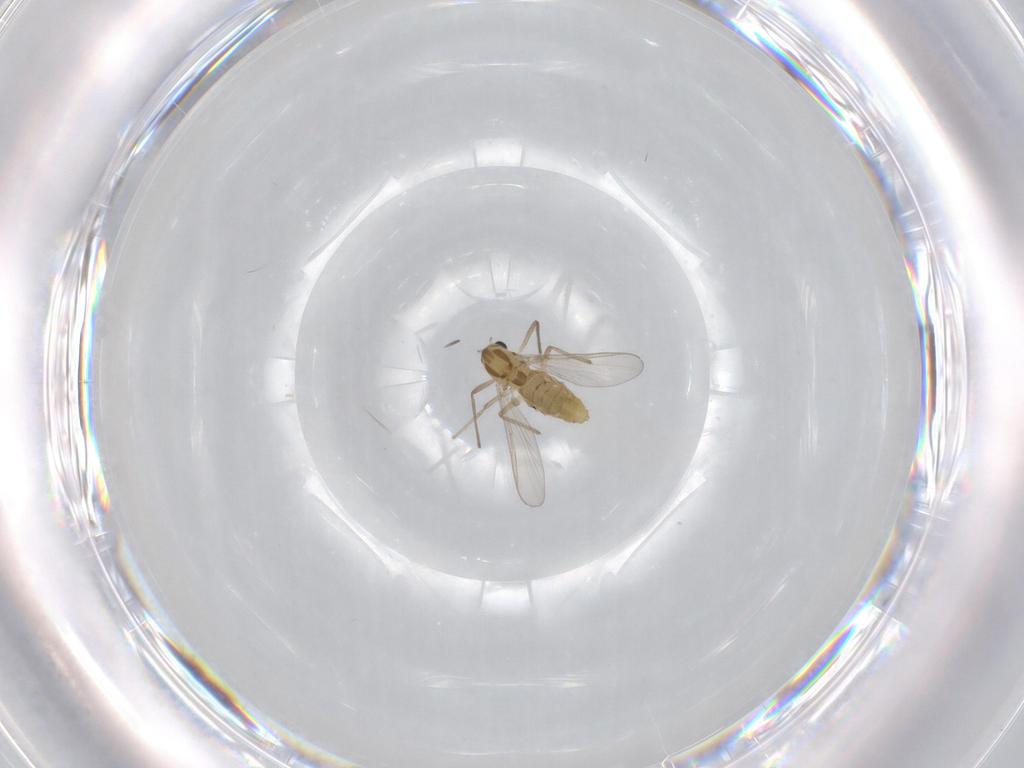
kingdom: Animalia
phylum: Arthropoda
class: Insecta
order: Diptera
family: Chironomidae
